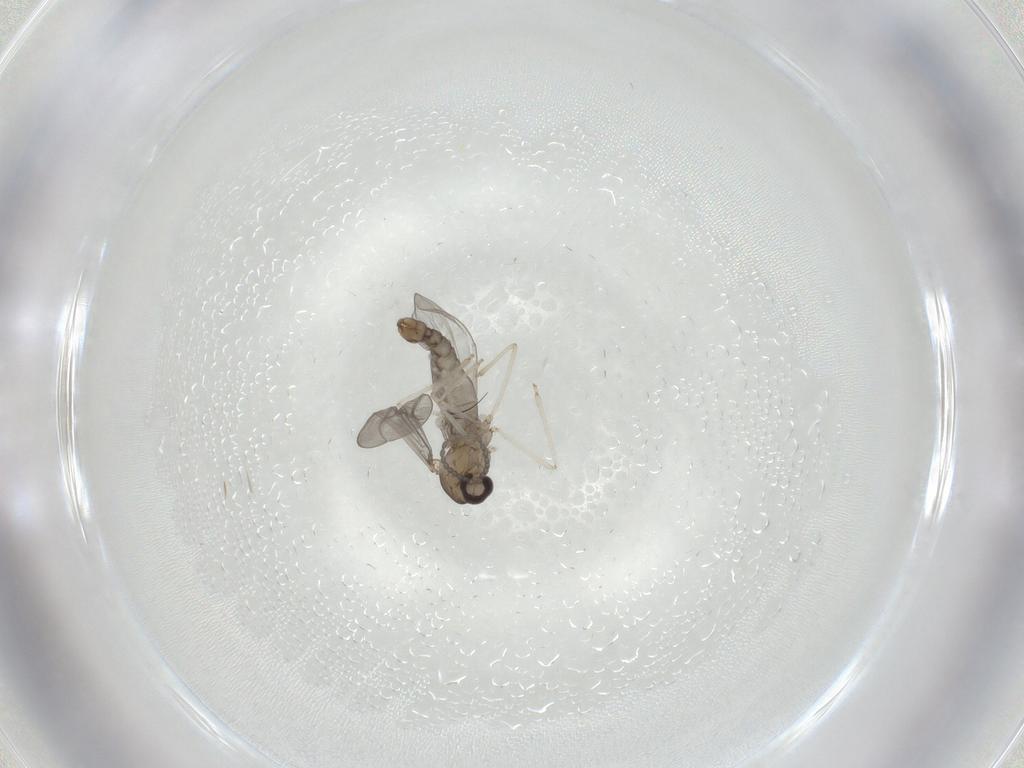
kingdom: Animalia
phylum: Arthropoda
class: Insecta
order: Diptera
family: Cecidomyiidae
